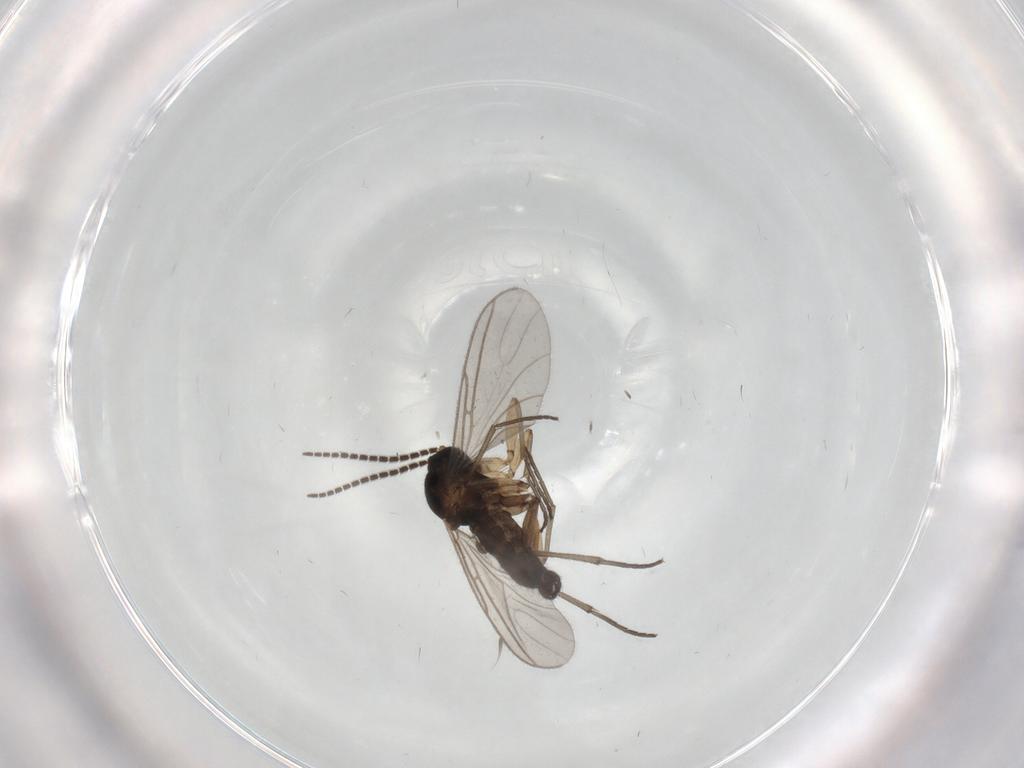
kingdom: Animalia
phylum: Arthropoda
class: Insecta
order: Diptera
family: Sciaridae
